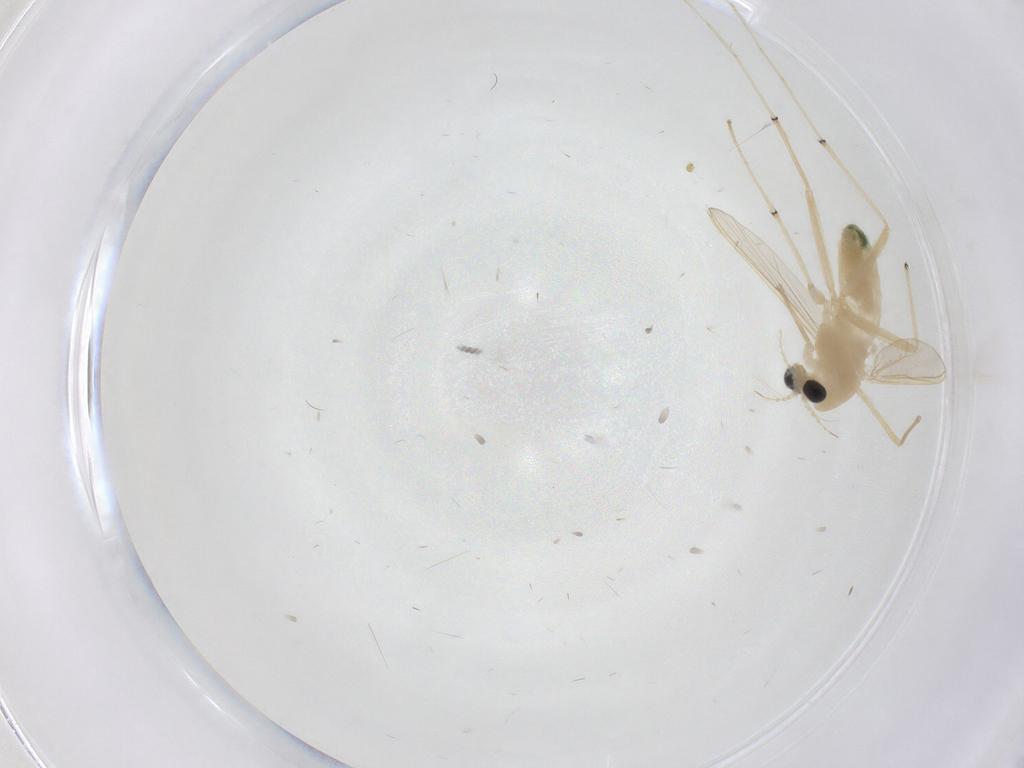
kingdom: Animalia
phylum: Arthropoda
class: Insecta
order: Diptera
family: Chironomidae
